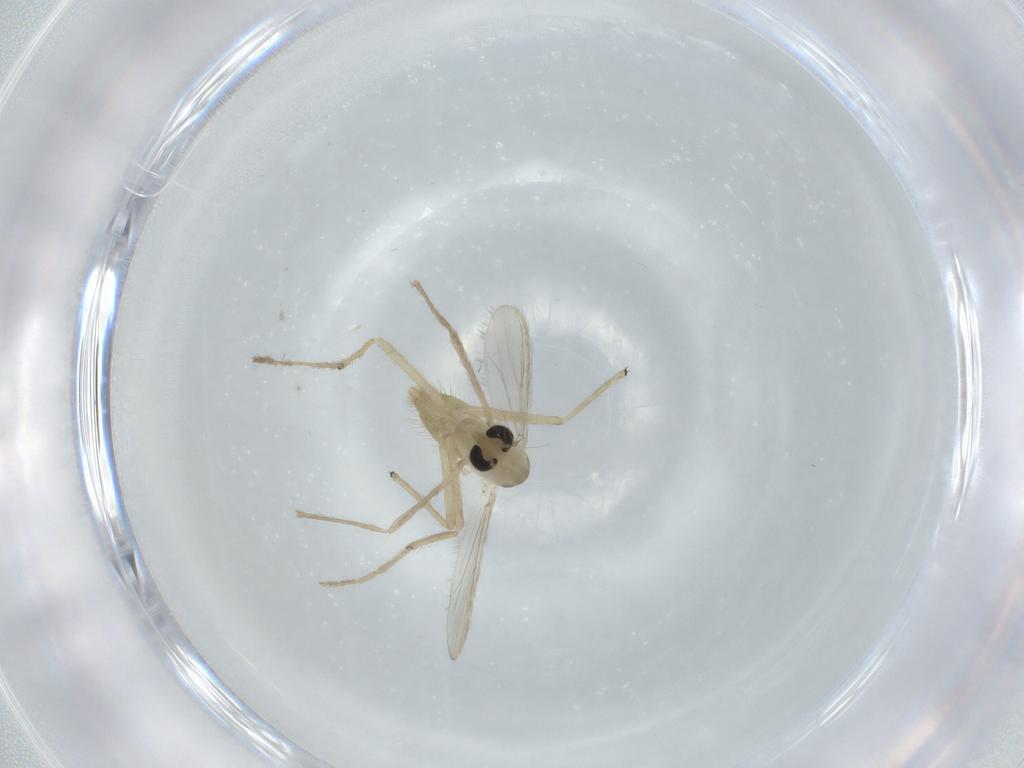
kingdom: Animalia
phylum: Arthropoda
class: Insecta
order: Diptera
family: Chironomidae
